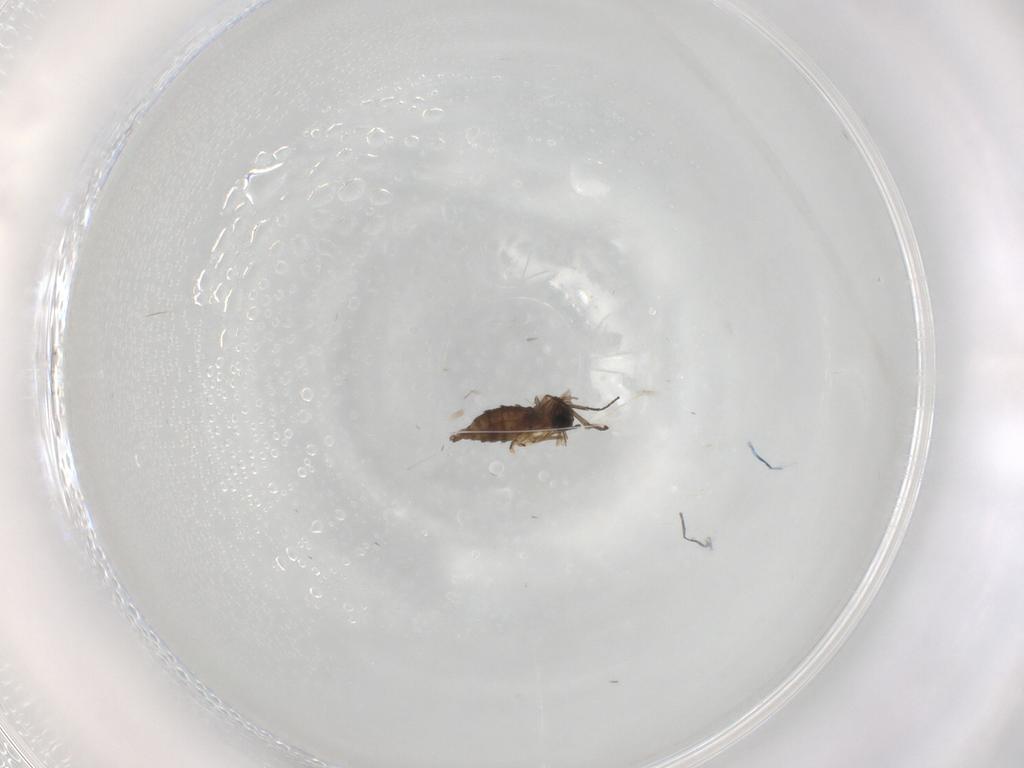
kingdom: Animalia
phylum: Arthropoda
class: Insecta
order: Diptera
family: Sciaridae
